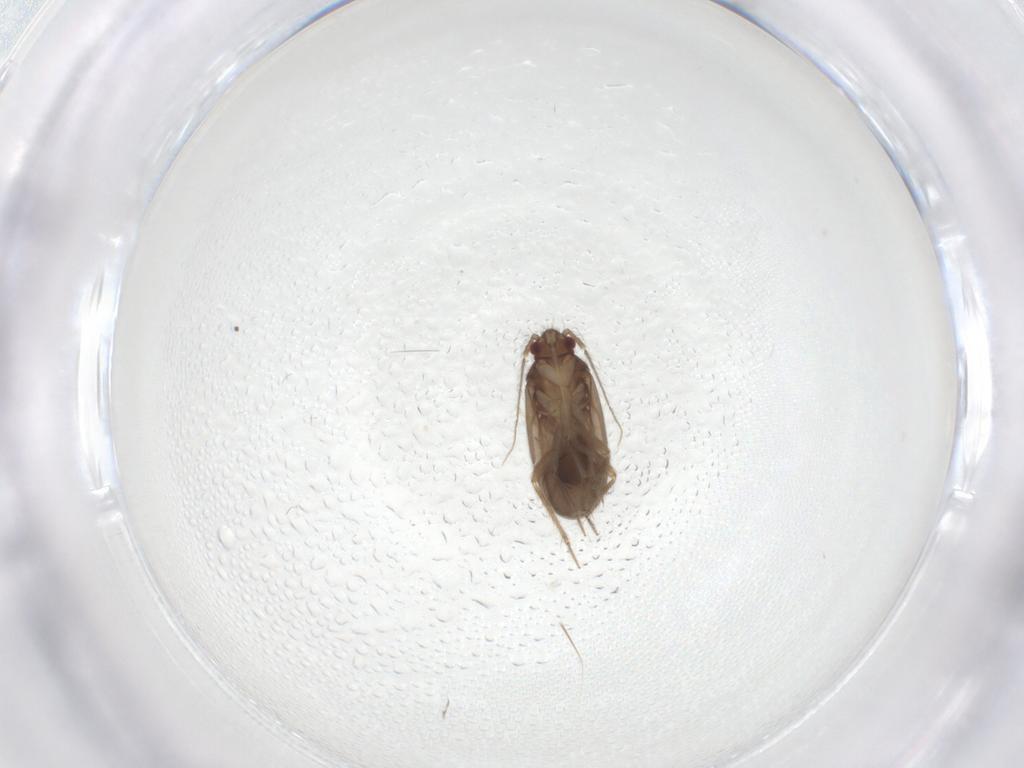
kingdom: Animalia
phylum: Arthropoda
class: Insecta
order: Hemiptera
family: Ceratocombidae
